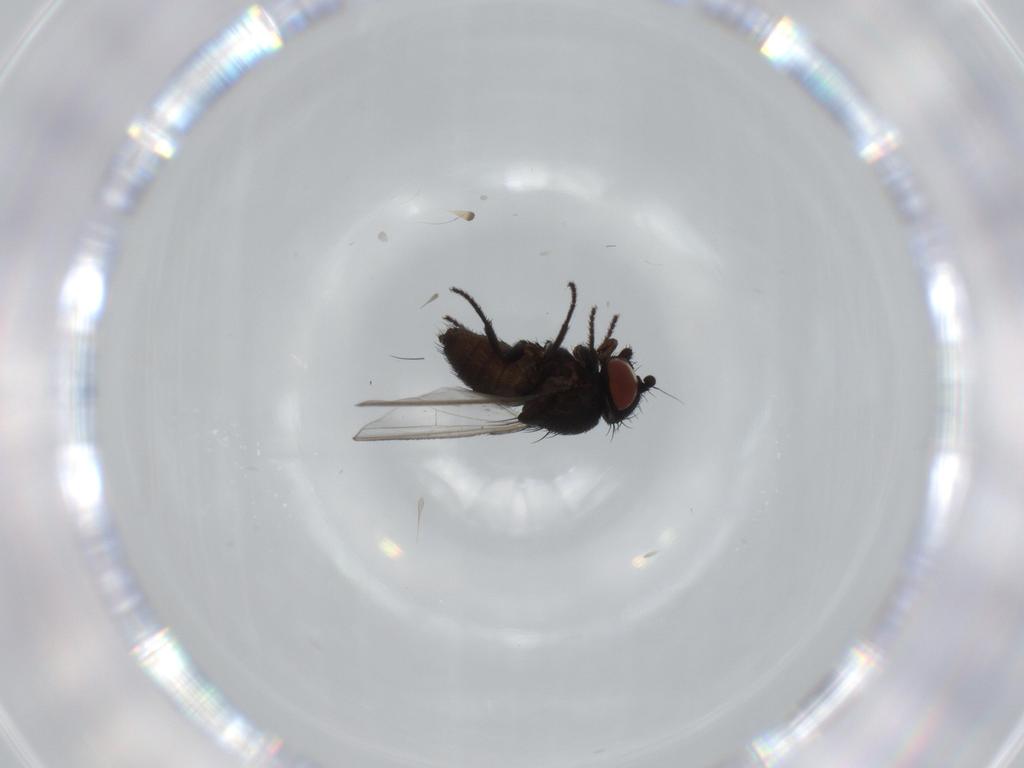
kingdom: Animalia
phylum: Arthropoda
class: Insecta
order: Diptera
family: Milichiidae
